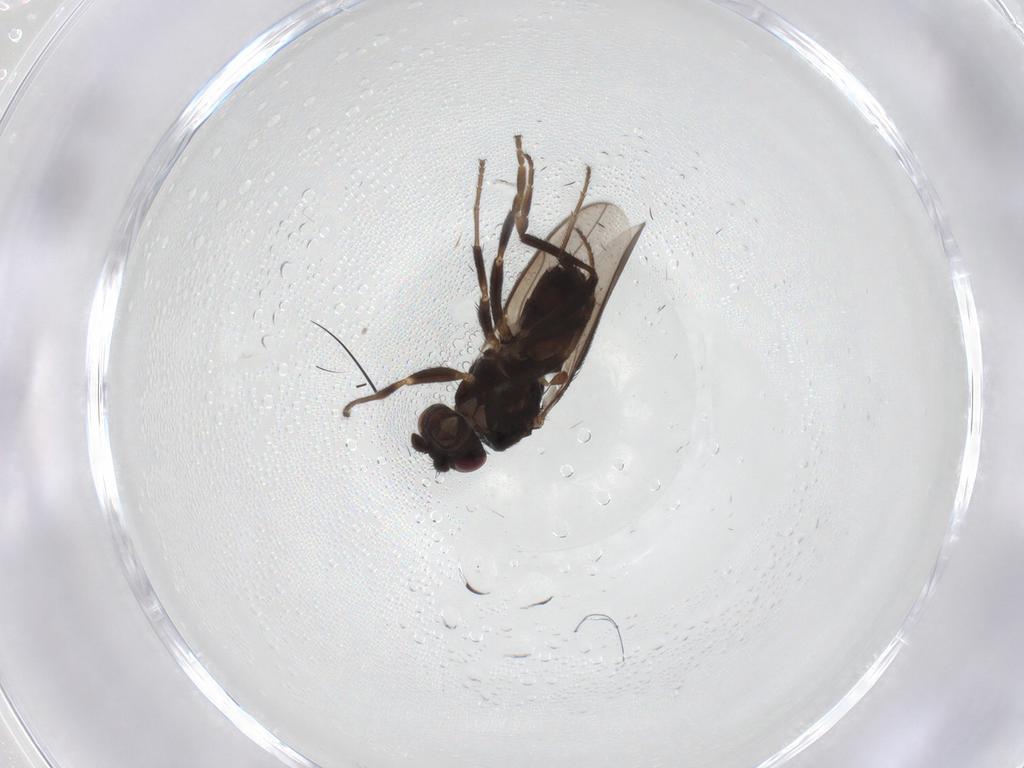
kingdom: Animalia
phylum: Arthropoda
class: Insecta
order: Diptera
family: Sphaeroceridae
